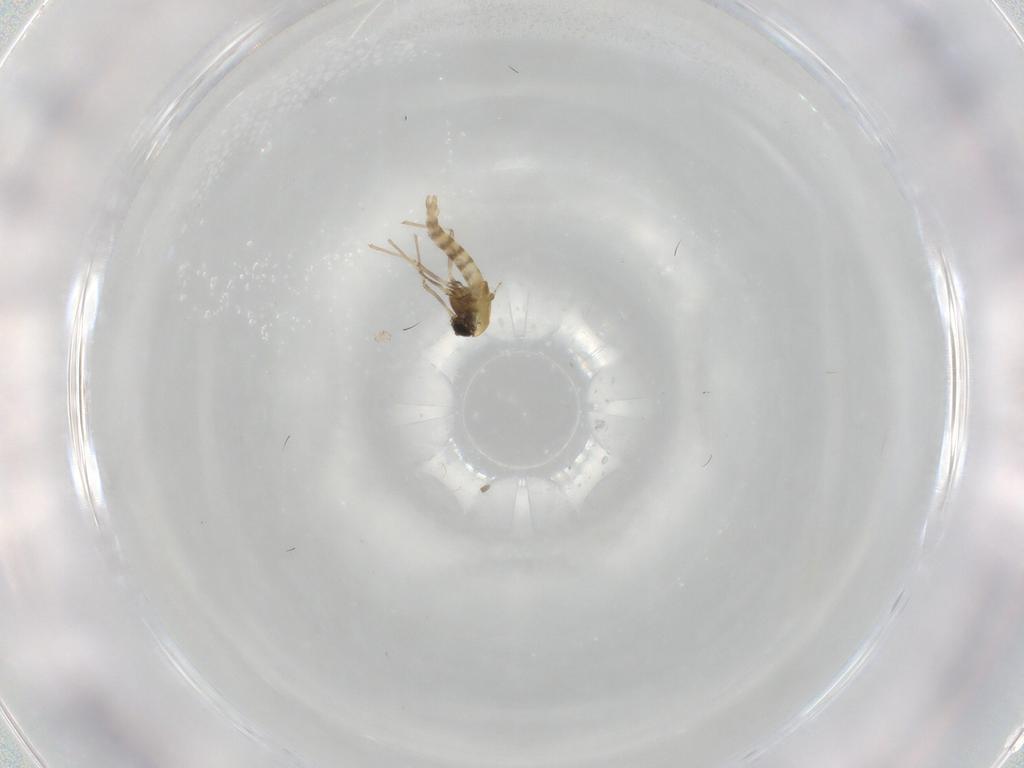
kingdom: Animalia
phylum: Arthropoda
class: Insecta
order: Diptera
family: Chironomidae
